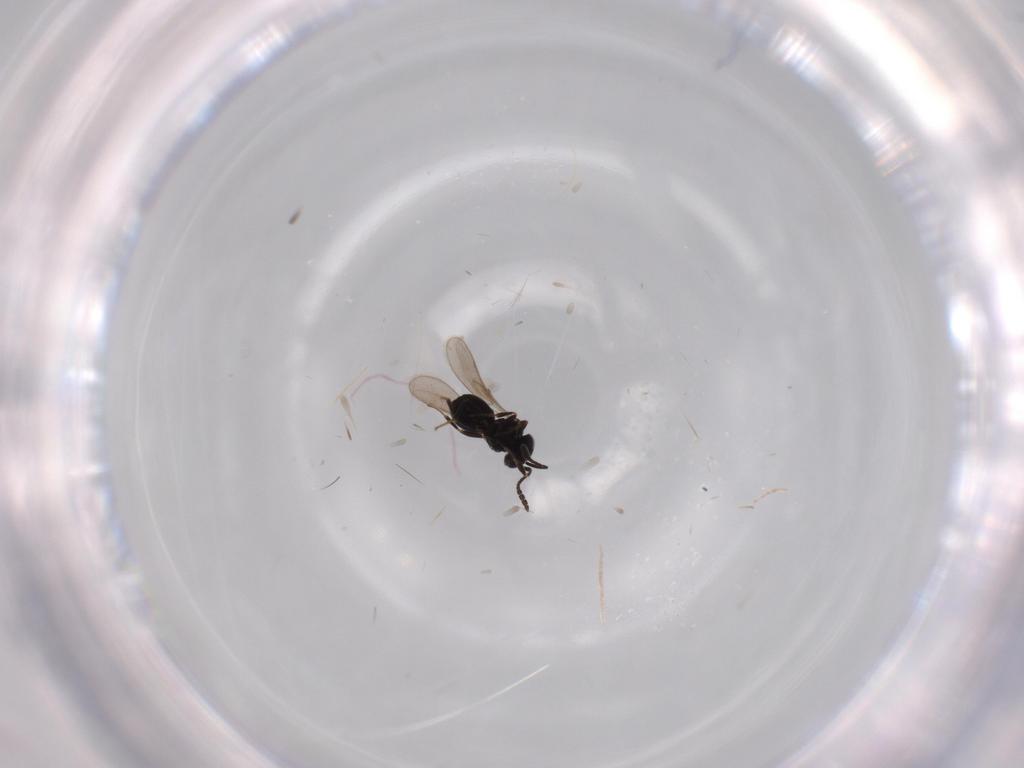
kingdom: Animalia
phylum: Arthropoda
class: Insecta
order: Hymenoptera
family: Scelionidae
